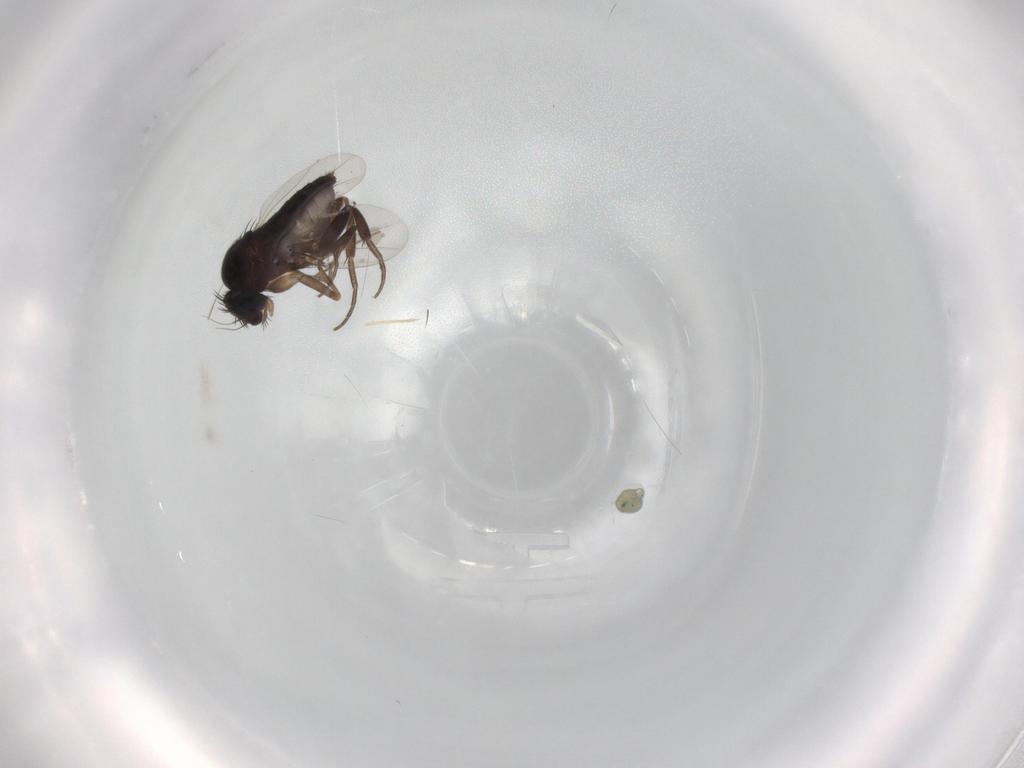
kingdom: Animalia
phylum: Arthropoda
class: Insecta
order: Diptera
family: Phoridae
